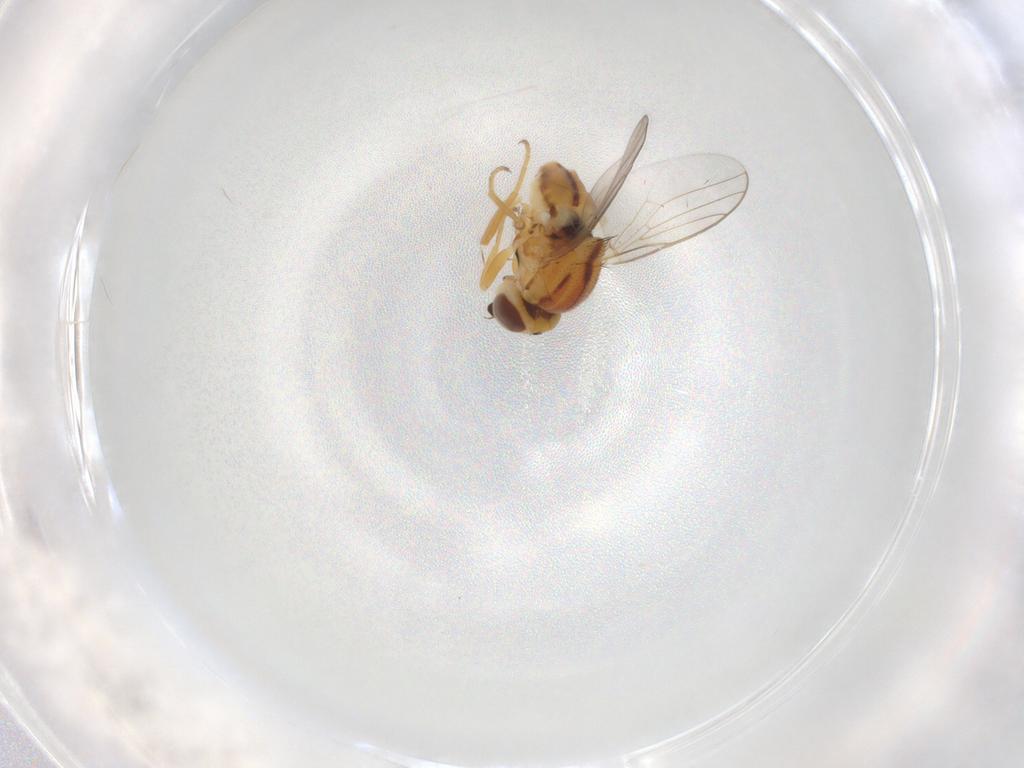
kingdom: Animalia
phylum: Arthropoda
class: Insecta
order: Diptera
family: Chloropidae
